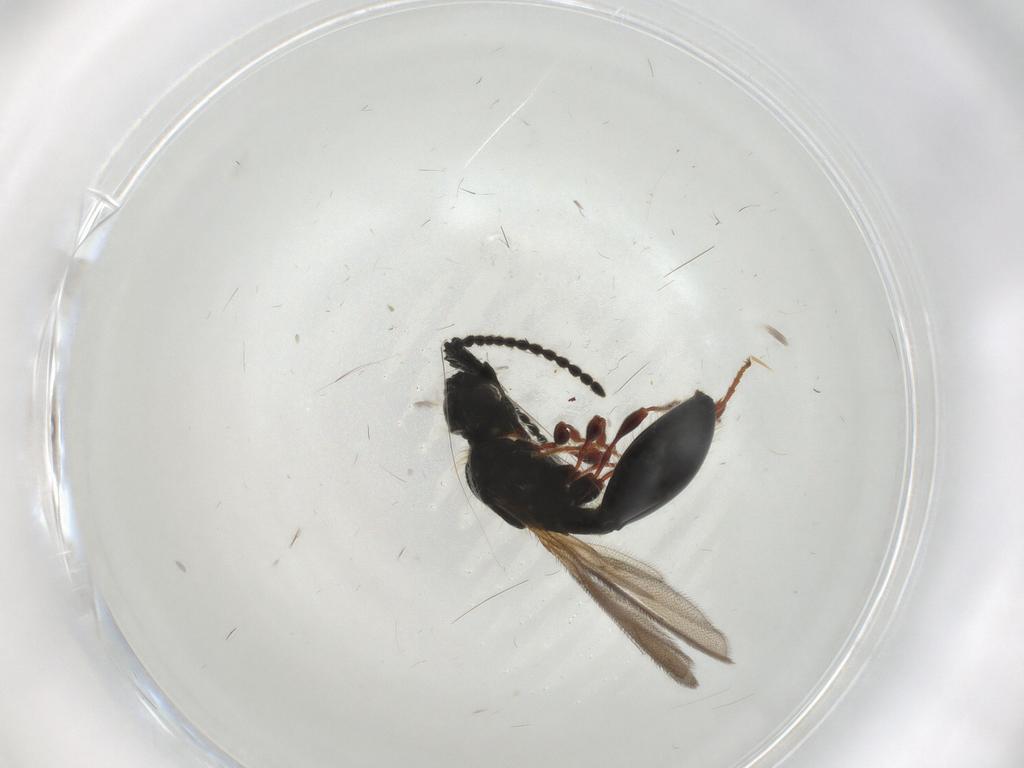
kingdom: Animalia
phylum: Arthropoda
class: Insecta
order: Hymenoptera
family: Diapriidae
